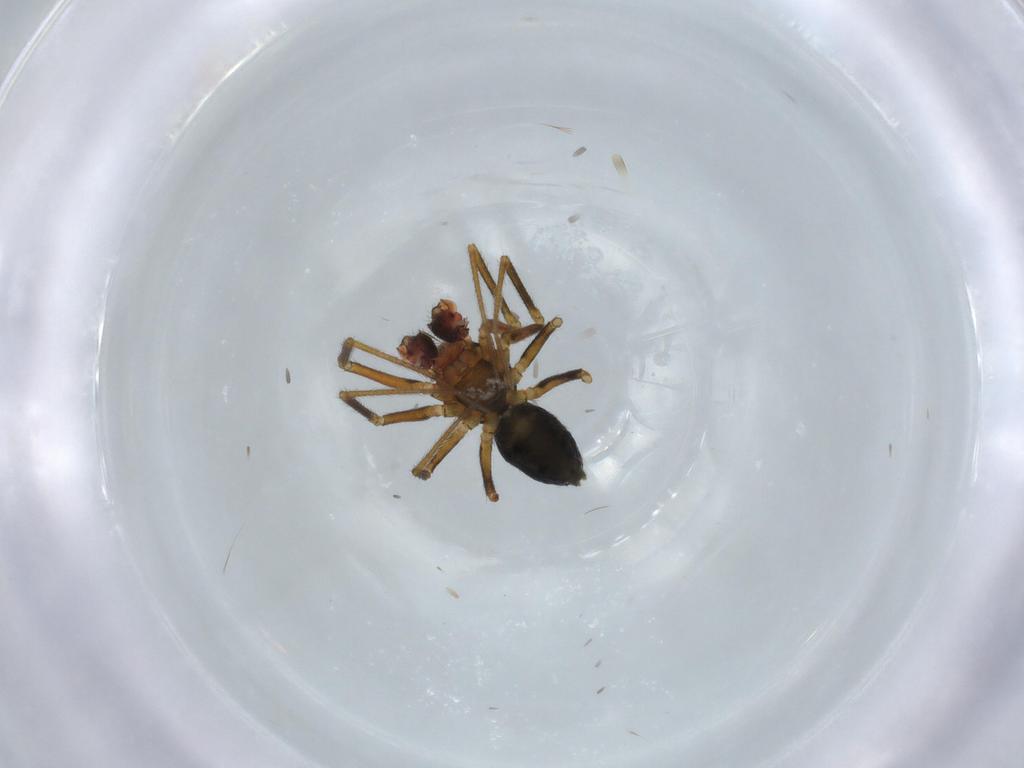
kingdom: Animalia
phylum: Arthropoda
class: Arachnida
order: Araneae
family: Linyphiidae
